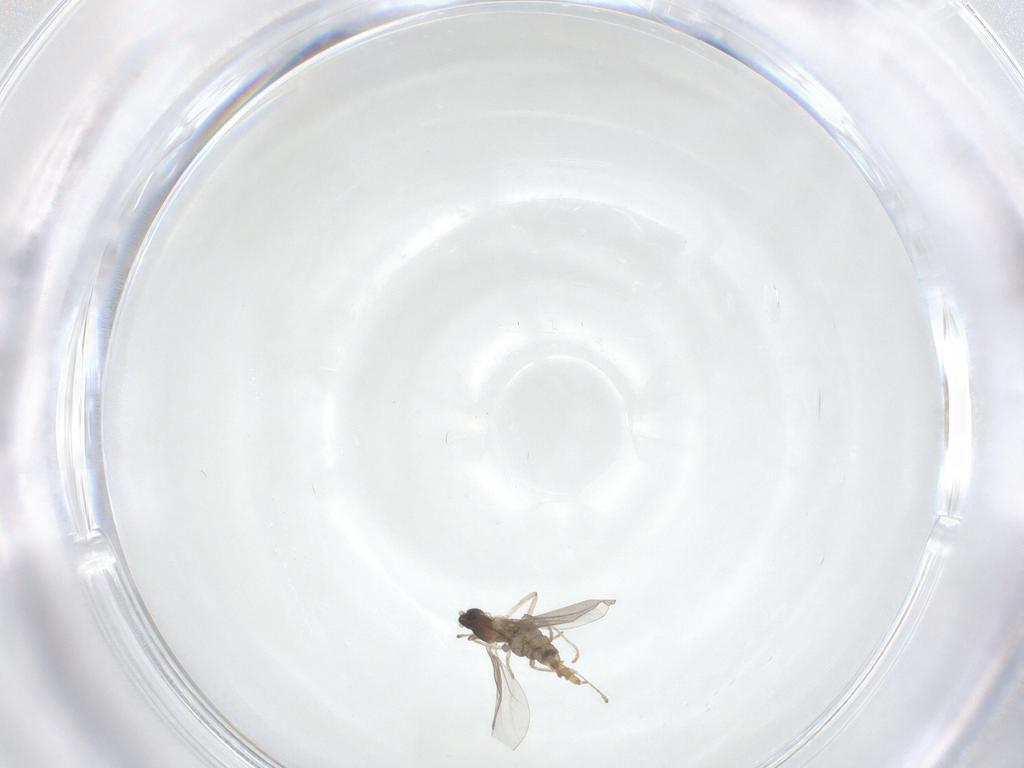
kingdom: Animalia
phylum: Arthropoda
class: Insecta
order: Diptera
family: Cecidomyiidae
